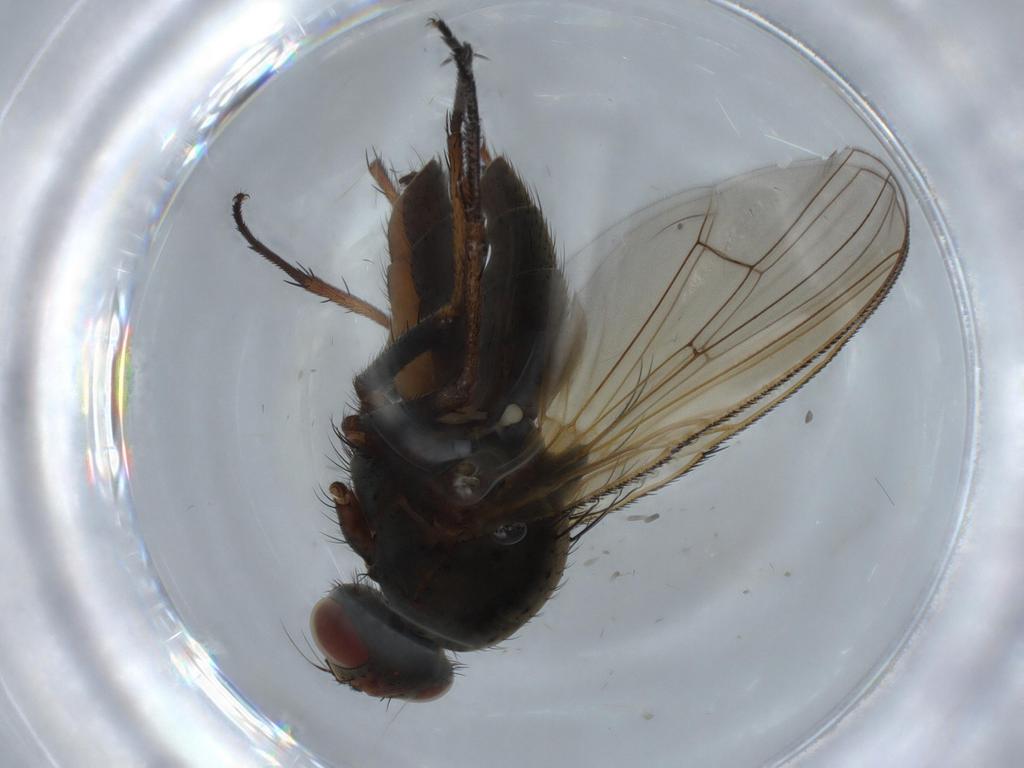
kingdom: Animalia
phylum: Arthropoda
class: Insecta
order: Diptera
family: Anthomyiidae
